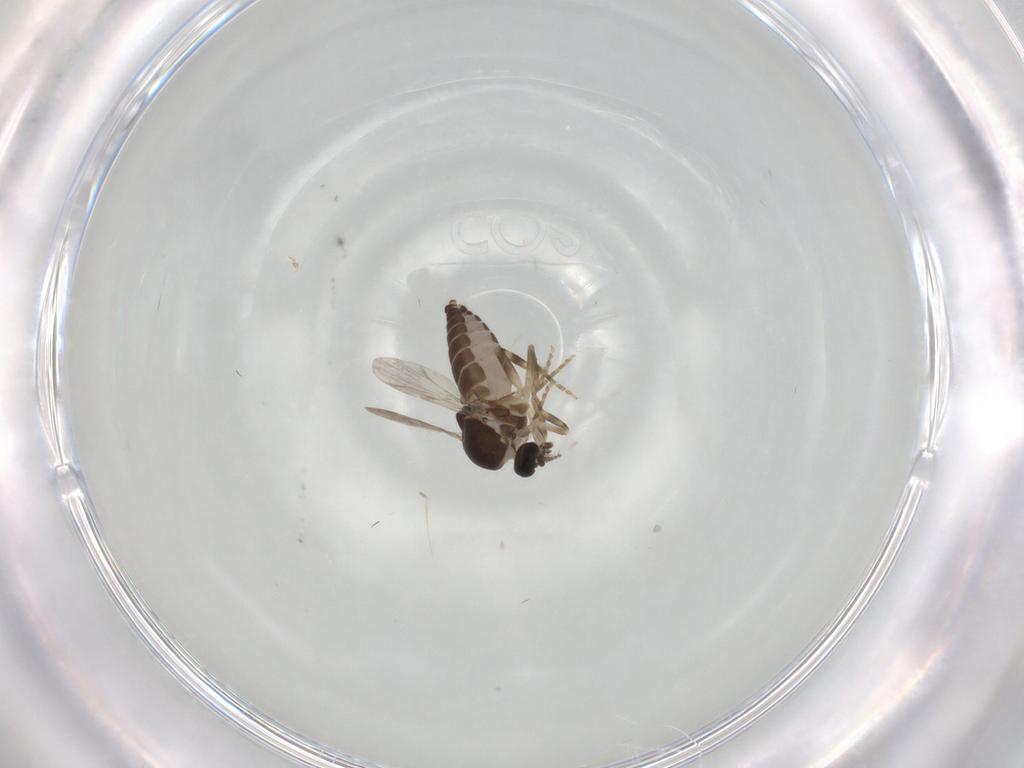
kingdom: Animalia
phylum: Arthropoda
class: Insecta
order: Diptera
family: Ceratopogonidae
